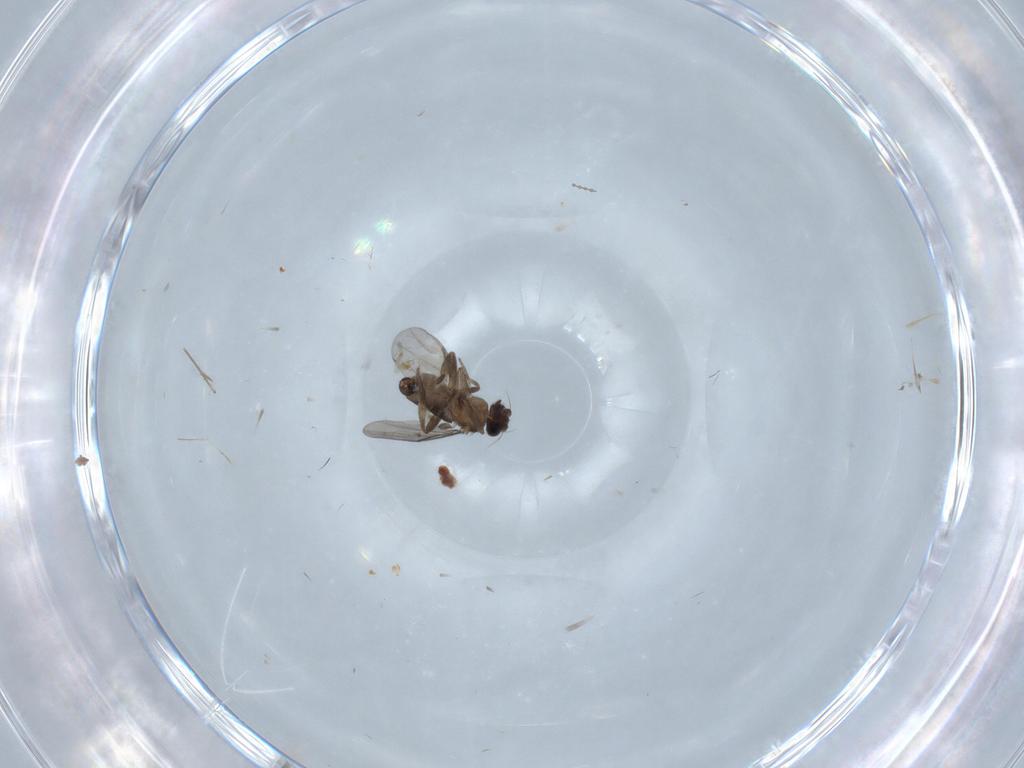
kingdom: Animalia
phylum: Arthropoda
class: Insecta
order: Diptera
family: Cecidomyiidae
